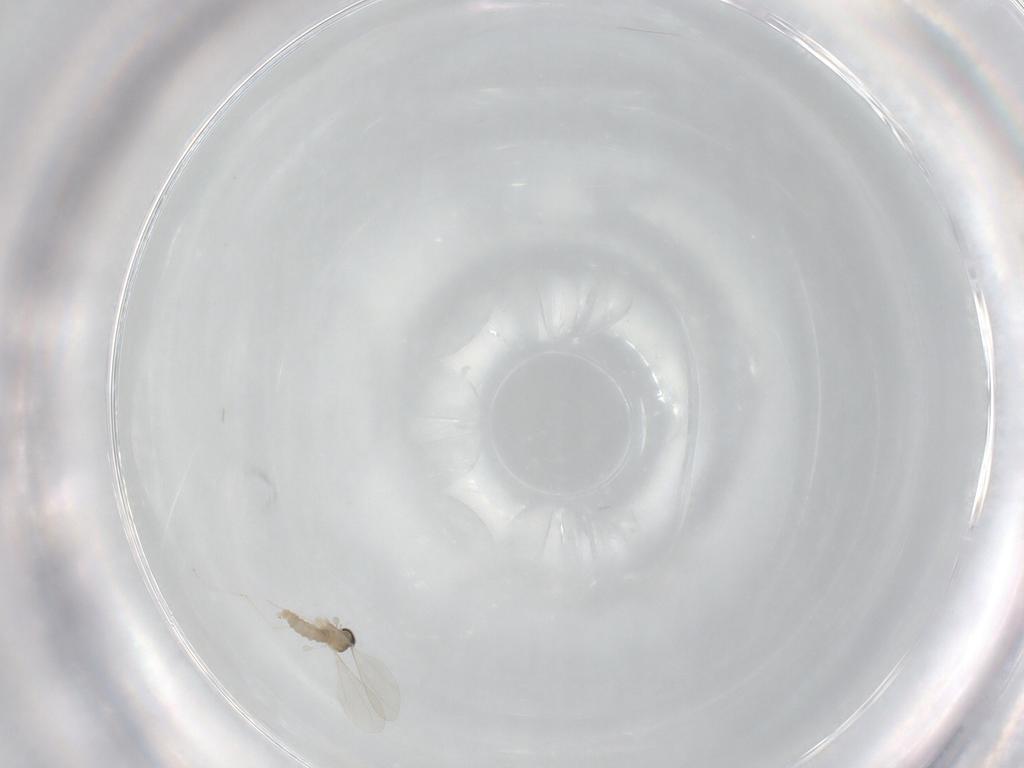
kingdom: Animalia
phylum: Arthropoda
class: Insecta
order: Diptera
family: Cecidomyiidae
